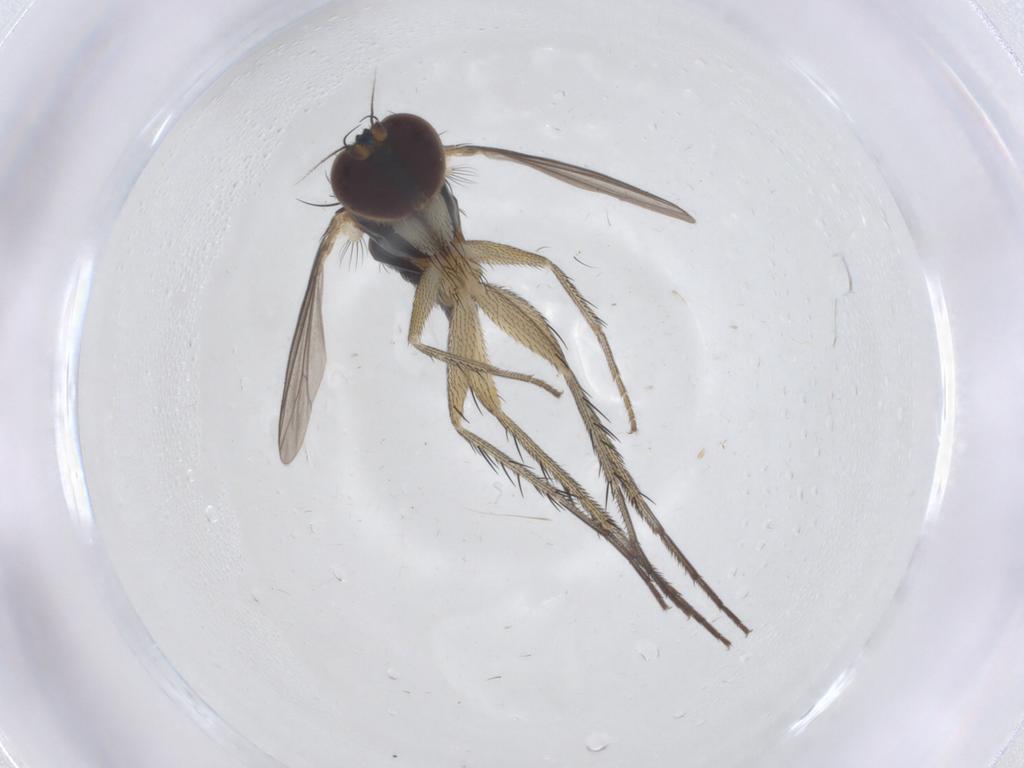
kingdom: Animalia
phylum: Arthropoda
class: Insecta
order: Diptera
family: Dolichopodidae
